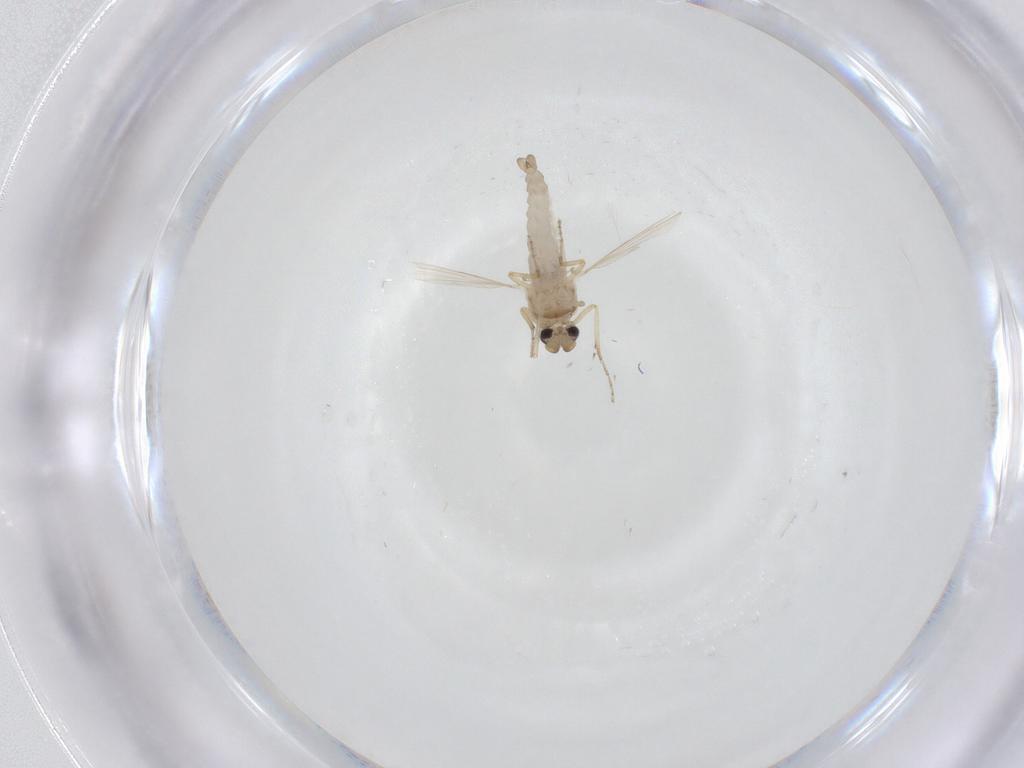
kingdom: Animalia
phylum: Arthropoda
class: Insecta
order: Diptera
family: Ceratopogonidae
